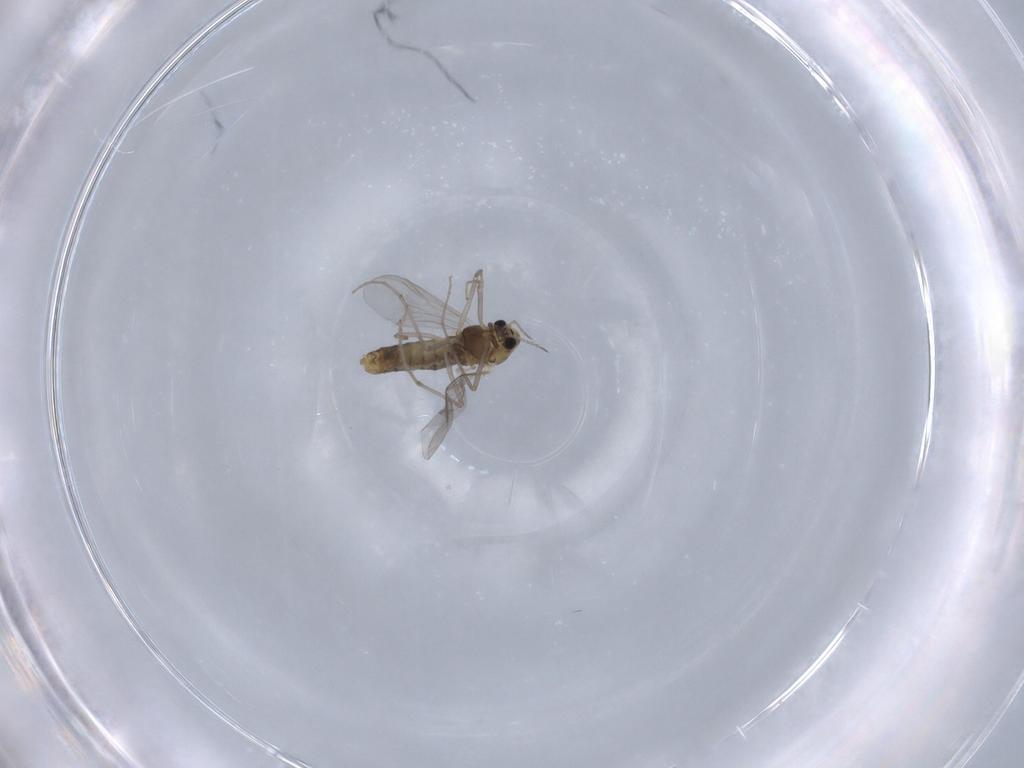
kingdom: Animalia
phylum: Arthropoda
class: Insecta
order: Diptera
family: Chironomidae
